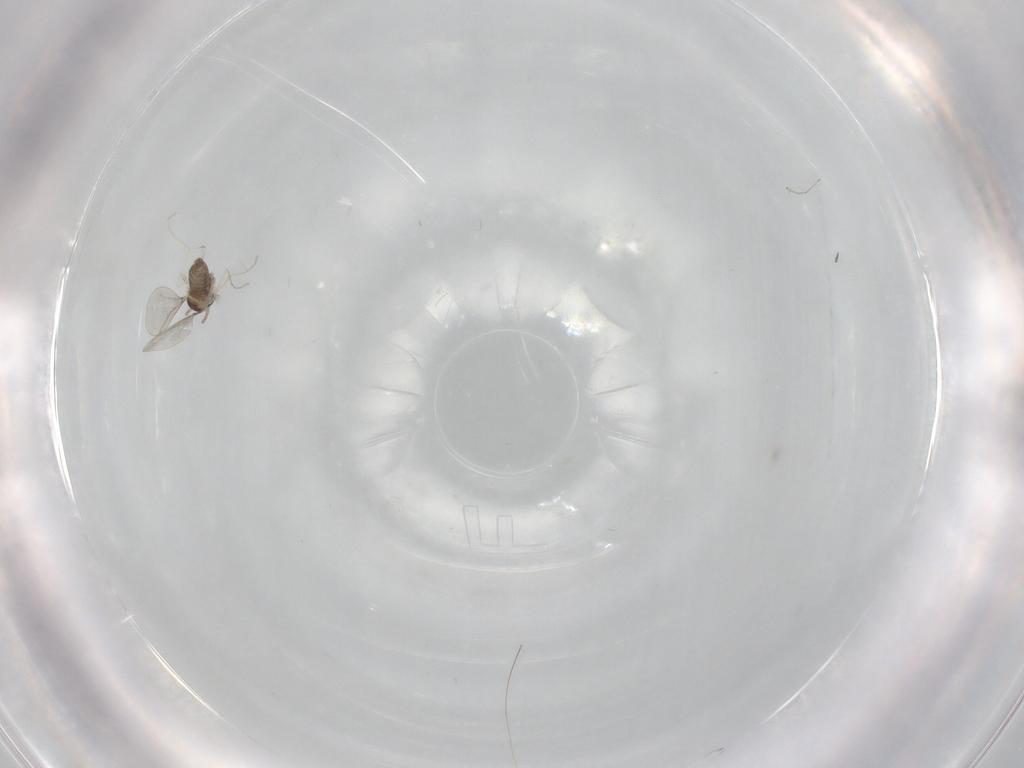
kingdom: Animalia
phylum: Arthropoda
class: Insecta
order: Diptera
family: Cecidomyiidae
